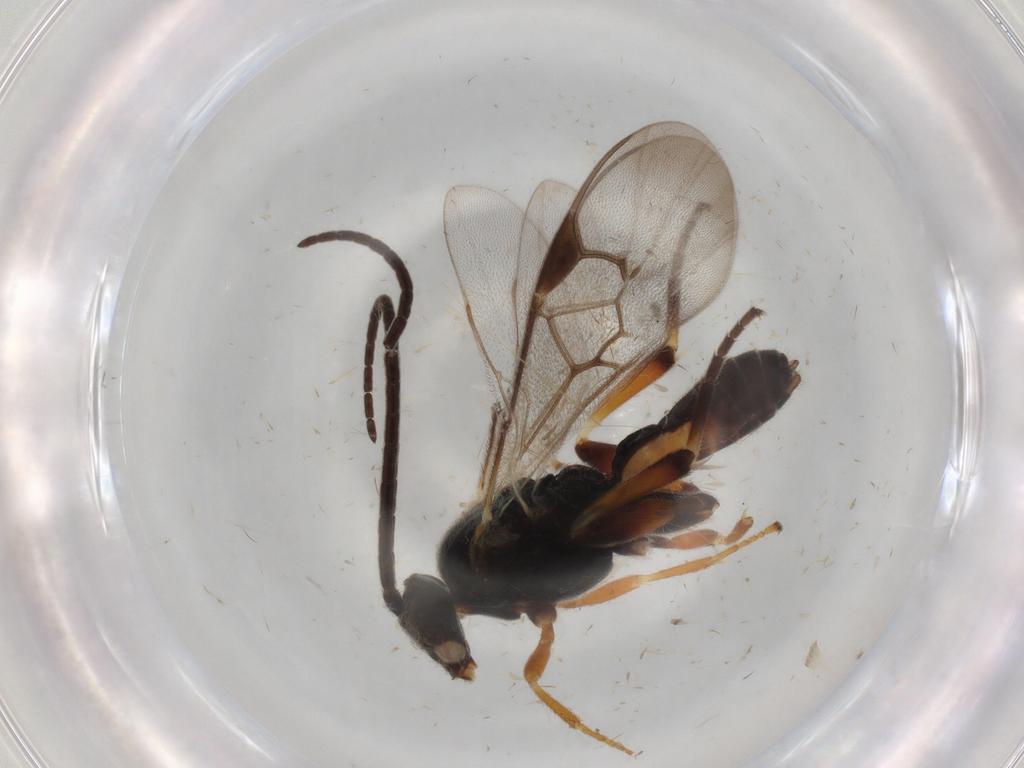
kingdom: Animalia
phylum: Arthropoda
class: Insecta
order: Hymenoptera
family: Braconidae
